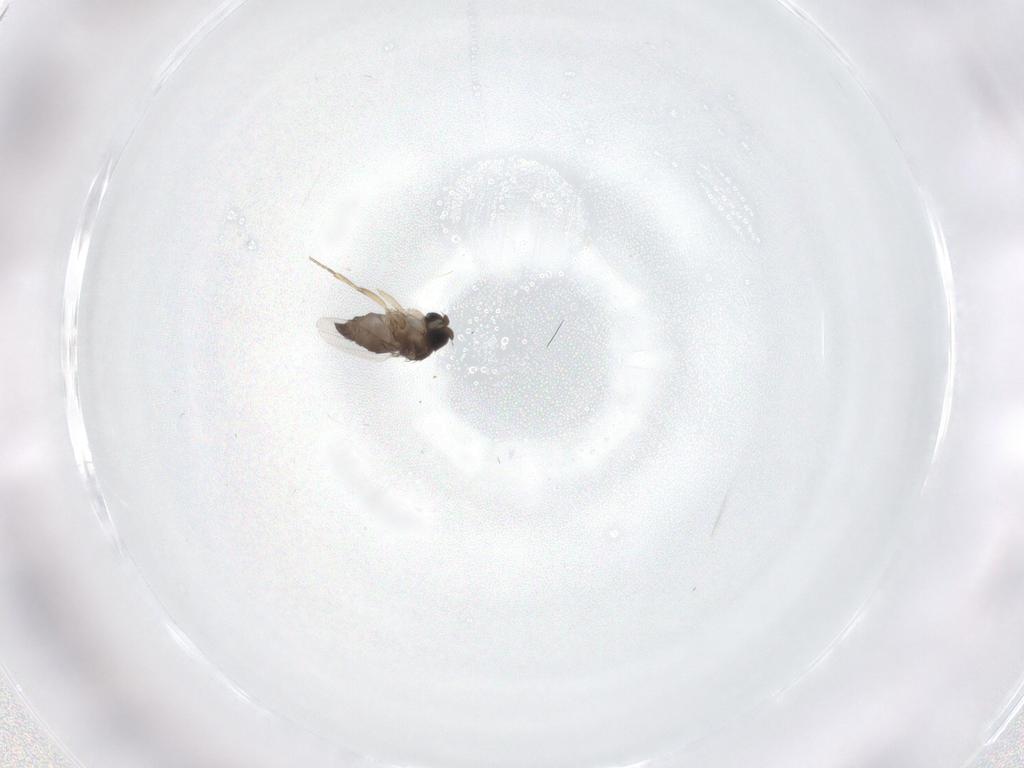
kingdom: Animalia
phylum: Arthropoda
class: Insecta
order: Diptera
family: Phoridae
